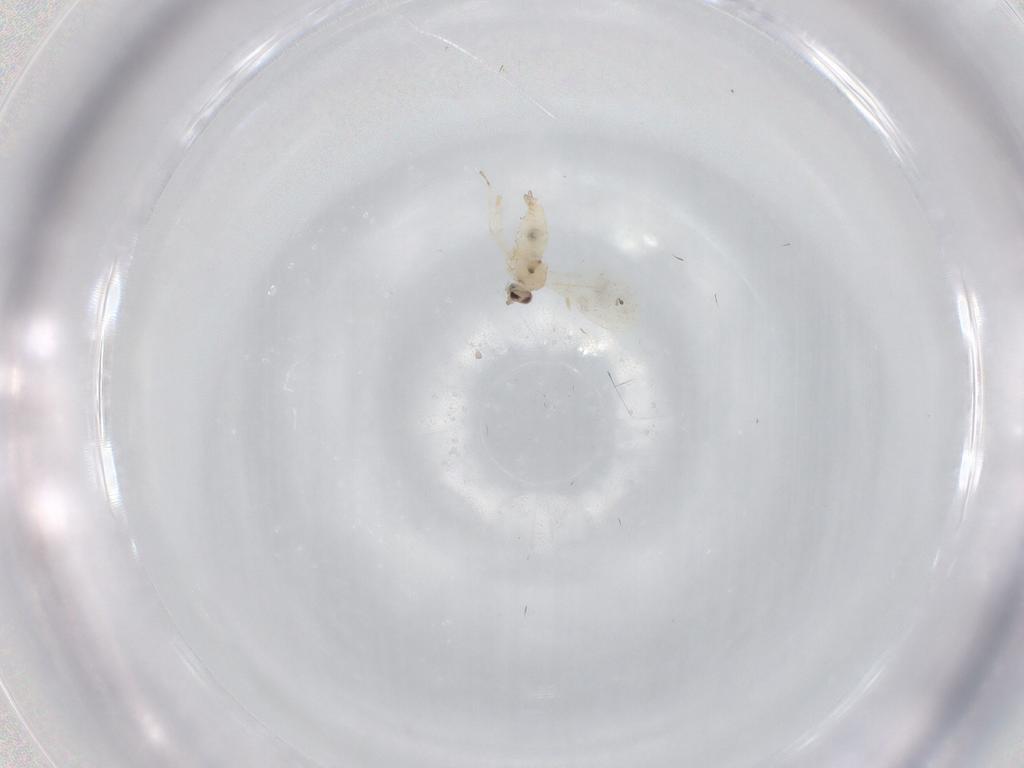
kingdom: Animalia
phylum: Arthropoda
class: Insecta
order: Diptera
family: Cecidomyiidae
